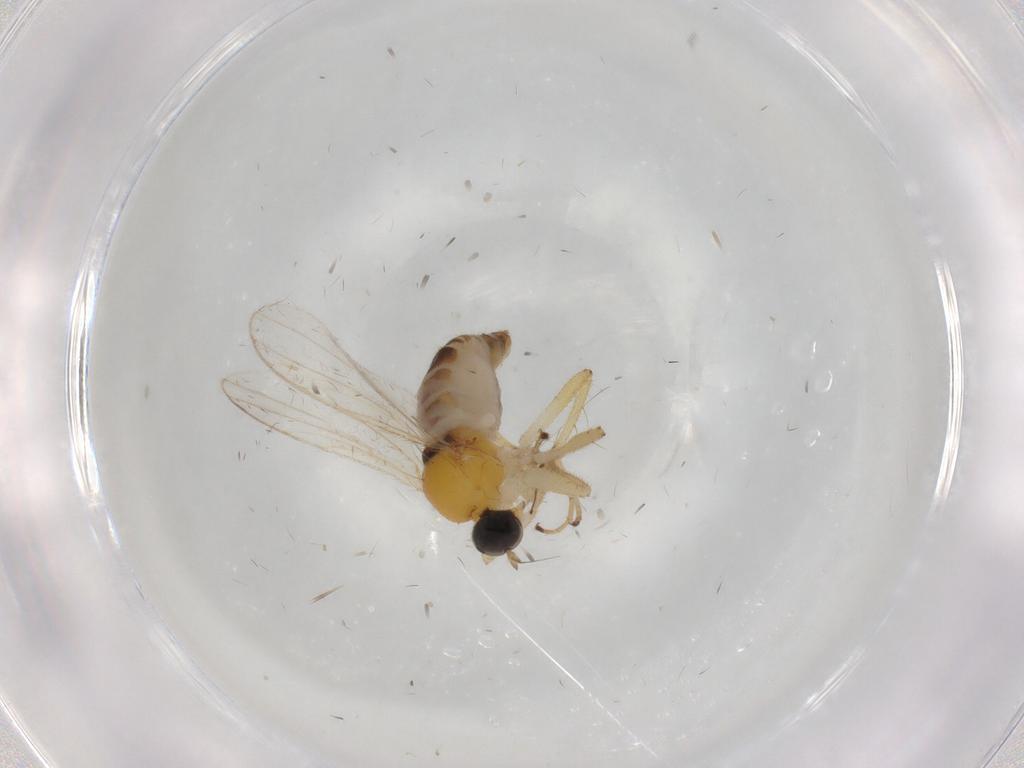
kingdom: Animalia
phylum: Arthropoda
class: Insecta
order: Diptera
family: Hybotidae
